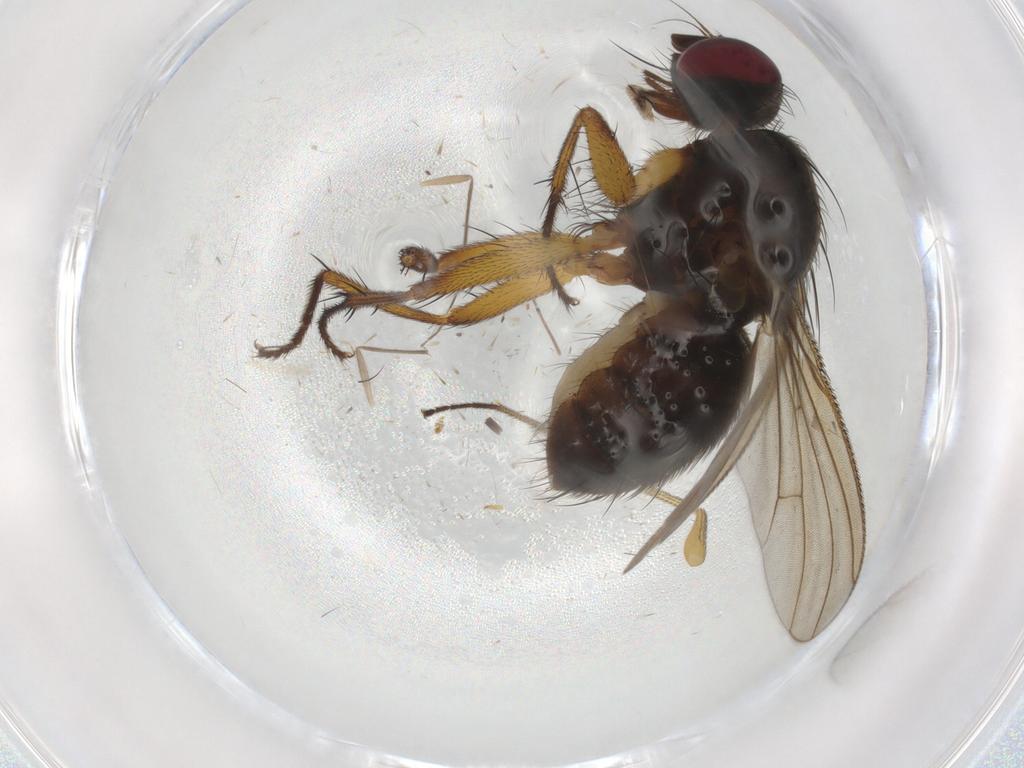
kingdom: Animalia
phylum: Arthropoda
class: Insecta
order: Diptera
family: Muscidae
